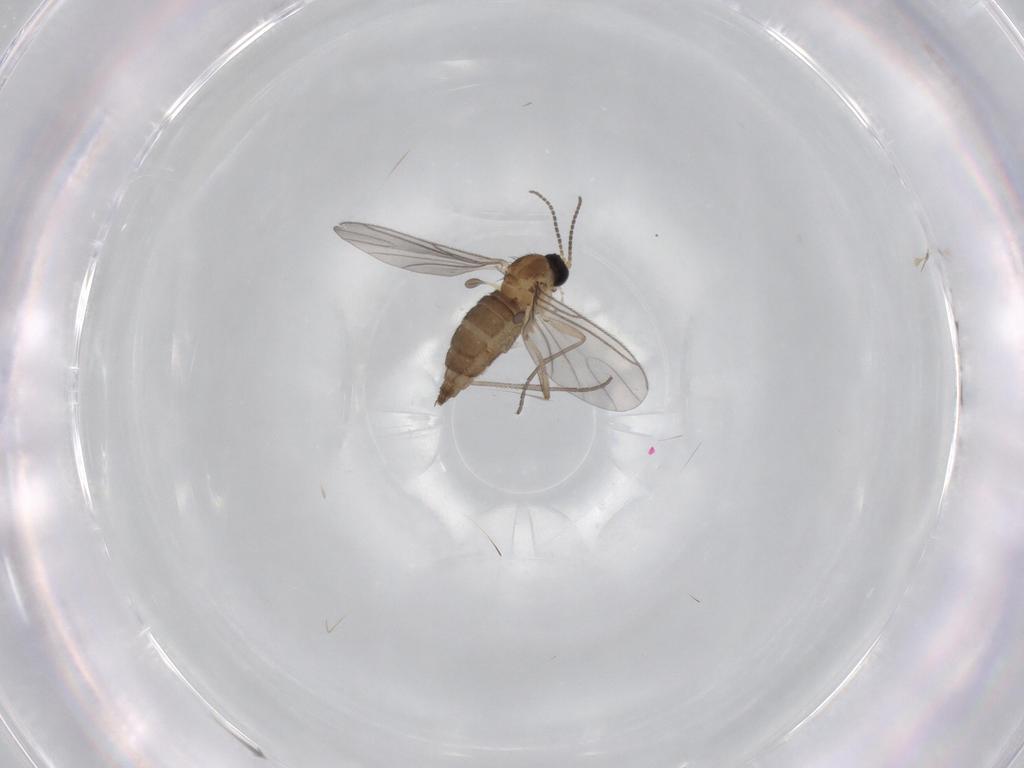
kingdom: Animalia
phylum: Arthropoda
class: Insecta
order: Diptera
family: Sciaridae
